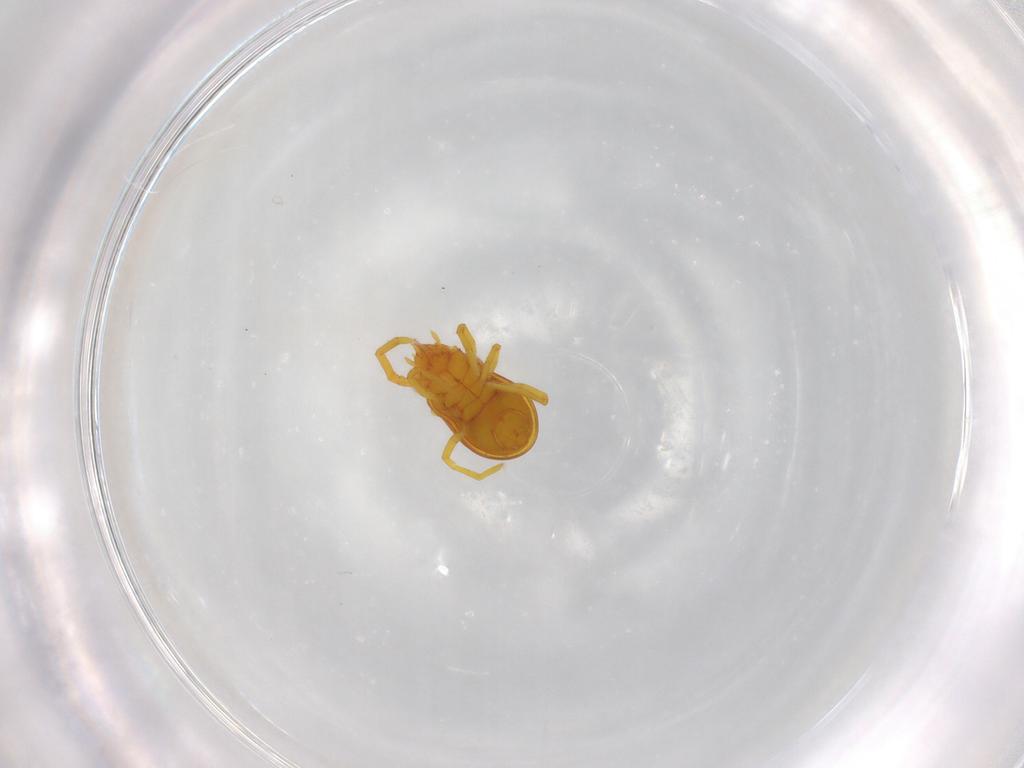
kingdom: Animalia
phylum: Arthropoda
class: Arachnida
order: Trombidiformes
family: Labidostommidae
